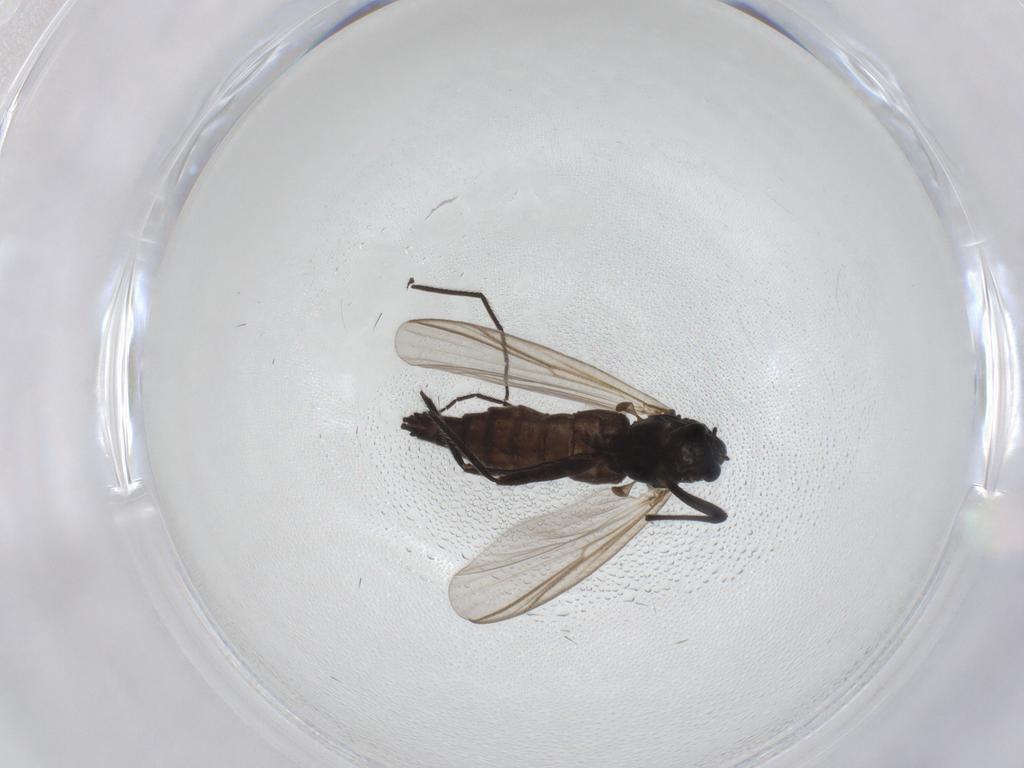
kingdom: Animalia
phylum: Arthropoda
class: Insecta
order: Diptera
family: Chironomidae
